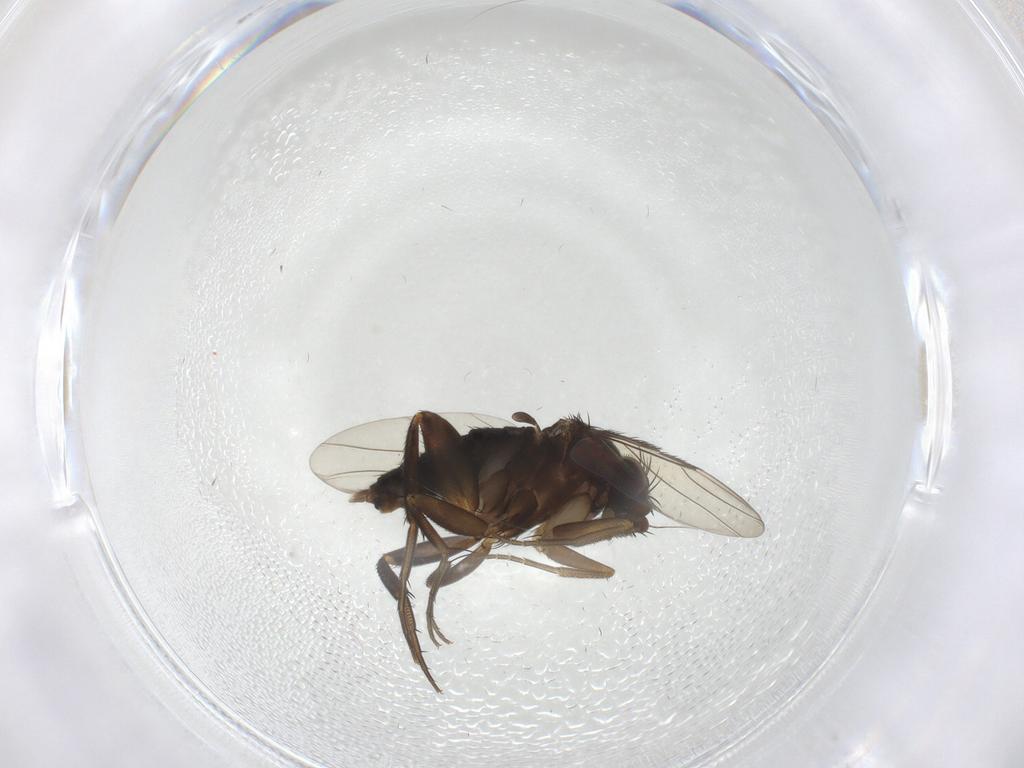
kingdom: Animalia
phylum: Arthropoda
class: Insecta
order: Diptera
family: Phoridae
